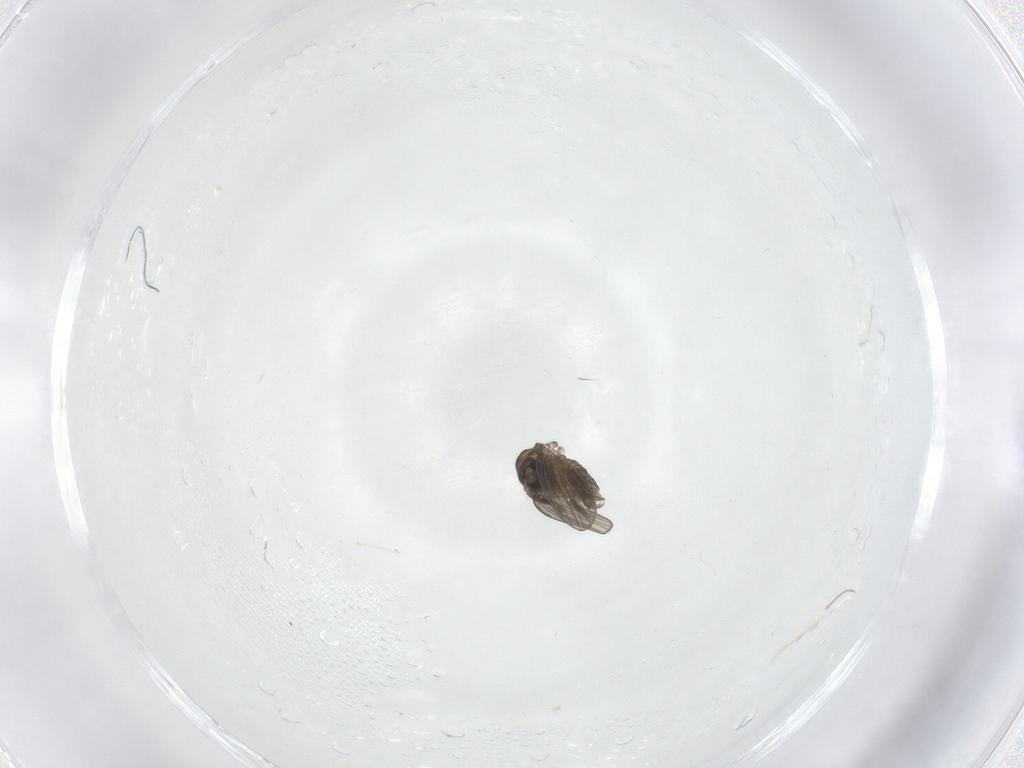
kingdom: Animalia
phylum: Arthropoda
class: Insecta
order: Diptera
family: Psychodidae
